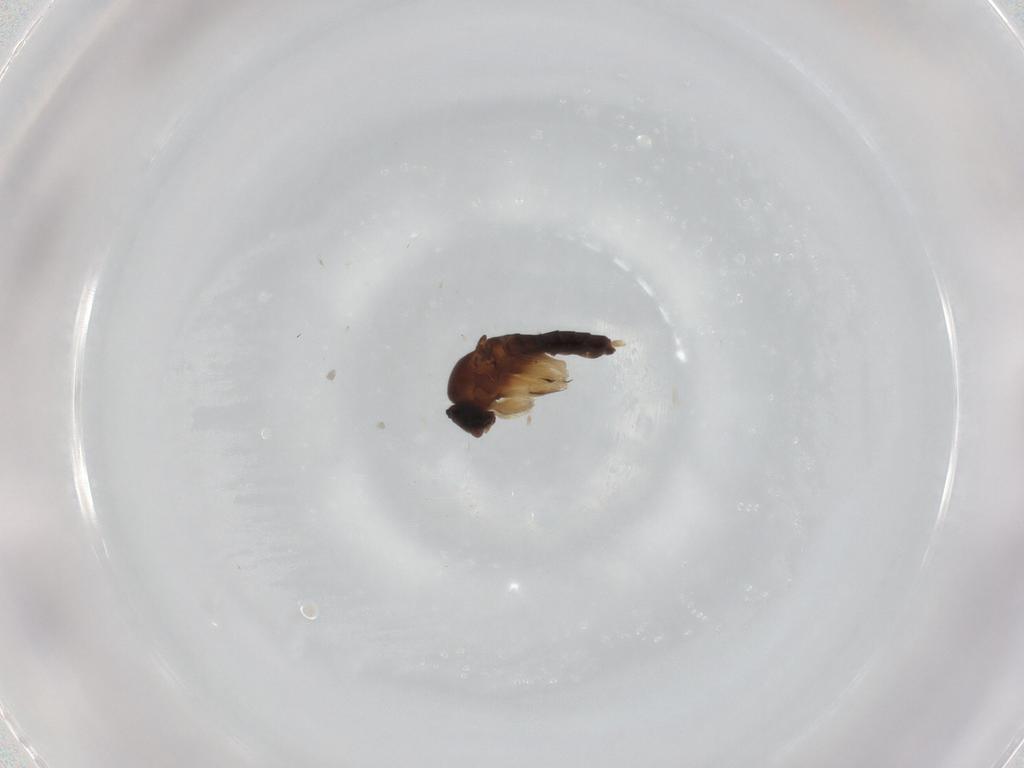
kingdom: Animalia
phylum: Arthropoda
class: Insecta
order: Diptera
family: Phoridae
